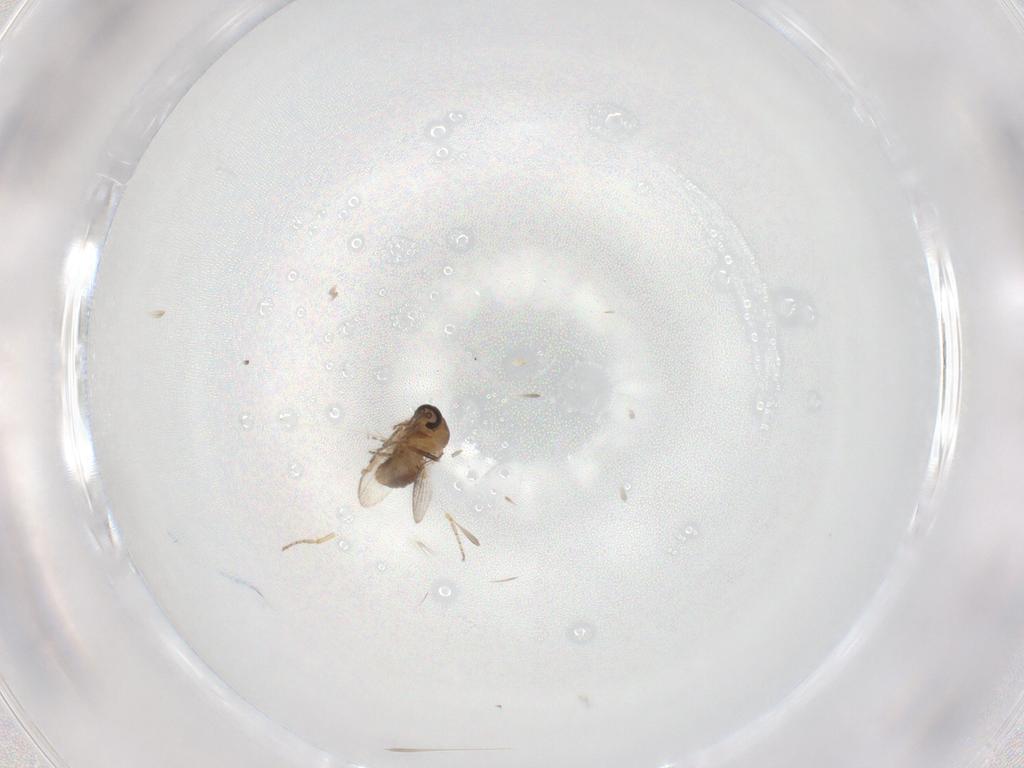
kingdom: Animalia
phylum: Arthropoda
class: Insecta
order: Diptera
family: Ceratopogonidae
